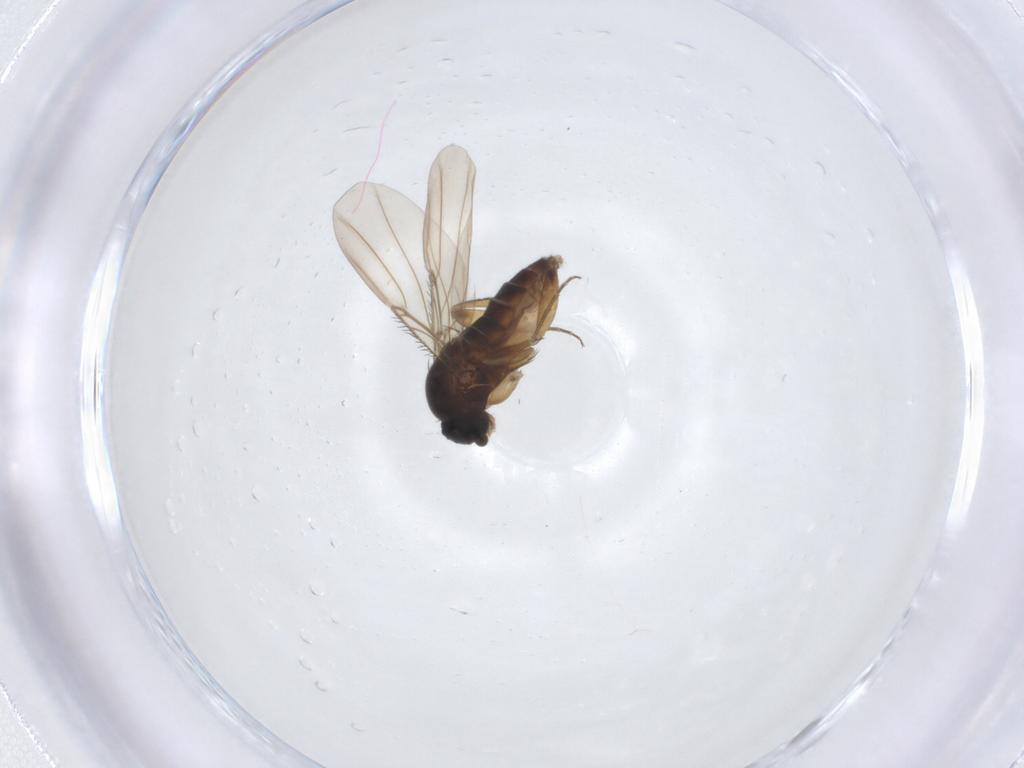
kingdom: Animalia
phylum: Arthropoda
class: Insecta
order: Diptera
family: Phoridae
